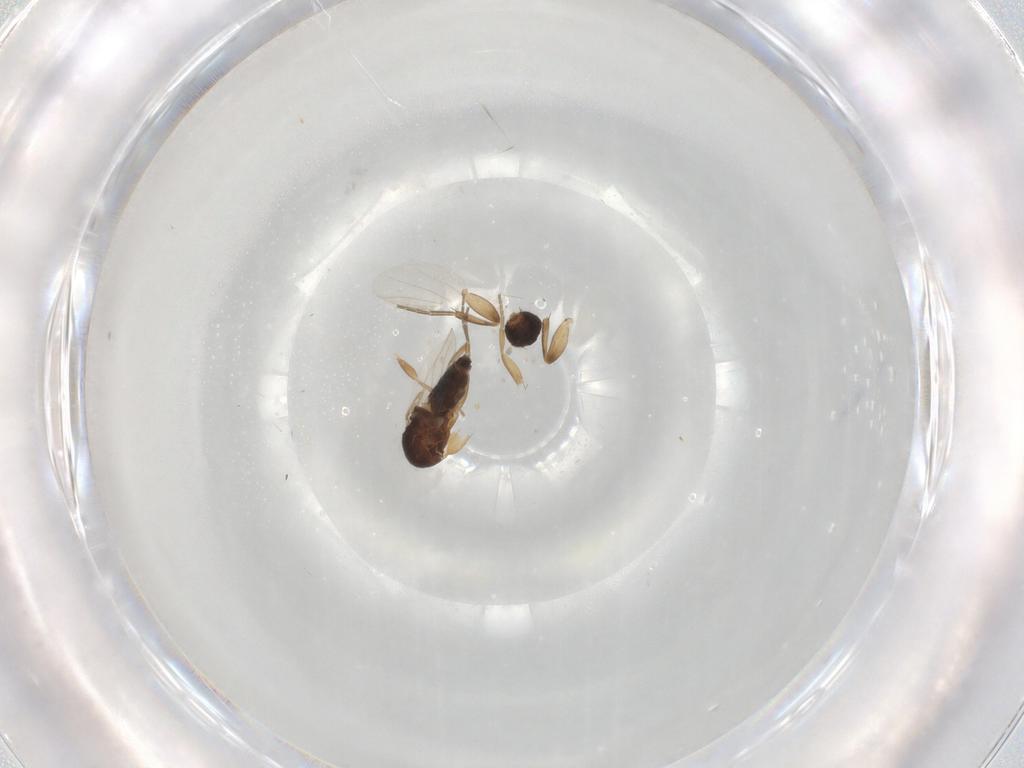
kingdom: Animalia
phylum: Arthropoda
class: Insecta
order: Diptera
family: Phoridae
